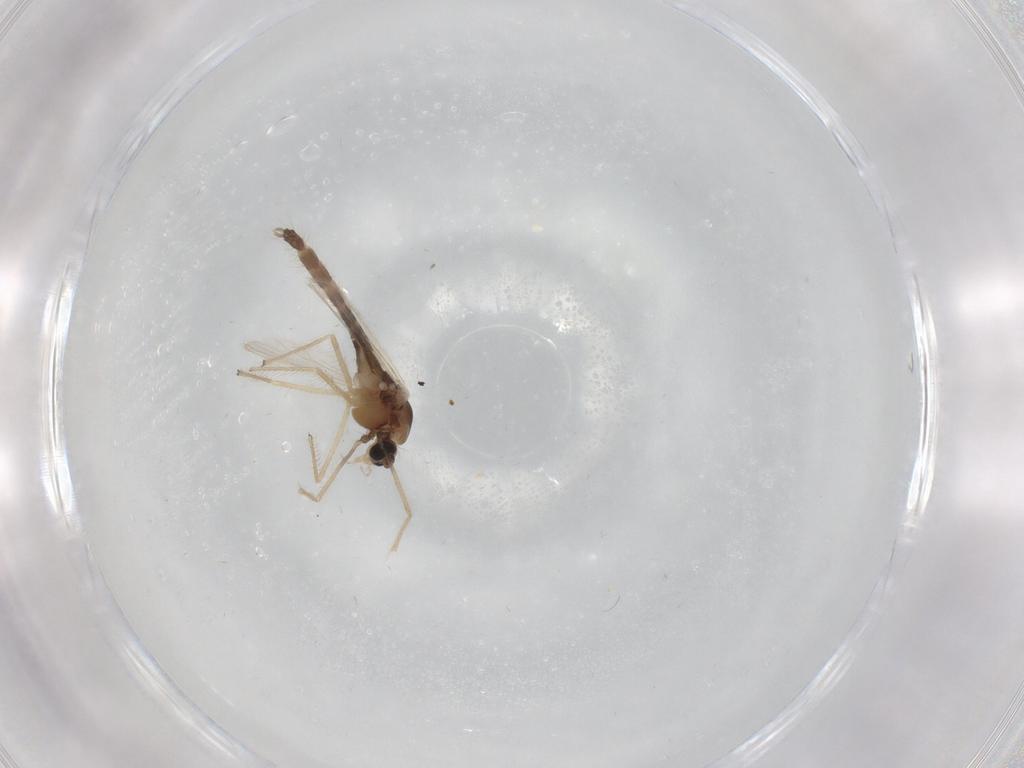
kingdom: Animalia
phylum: Arthropoda
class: Insecta
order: Diptera
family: Chironomidae
